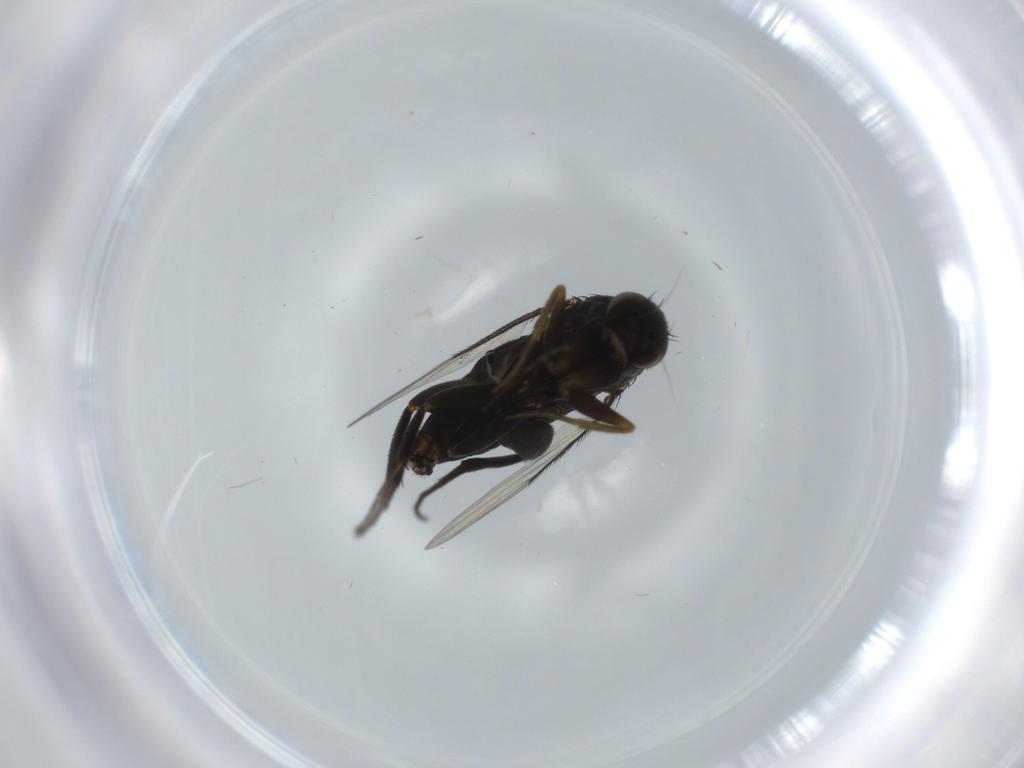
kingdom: Animalia
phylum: Arthropoda
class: Insecta
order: Diptera
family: Phoridae
